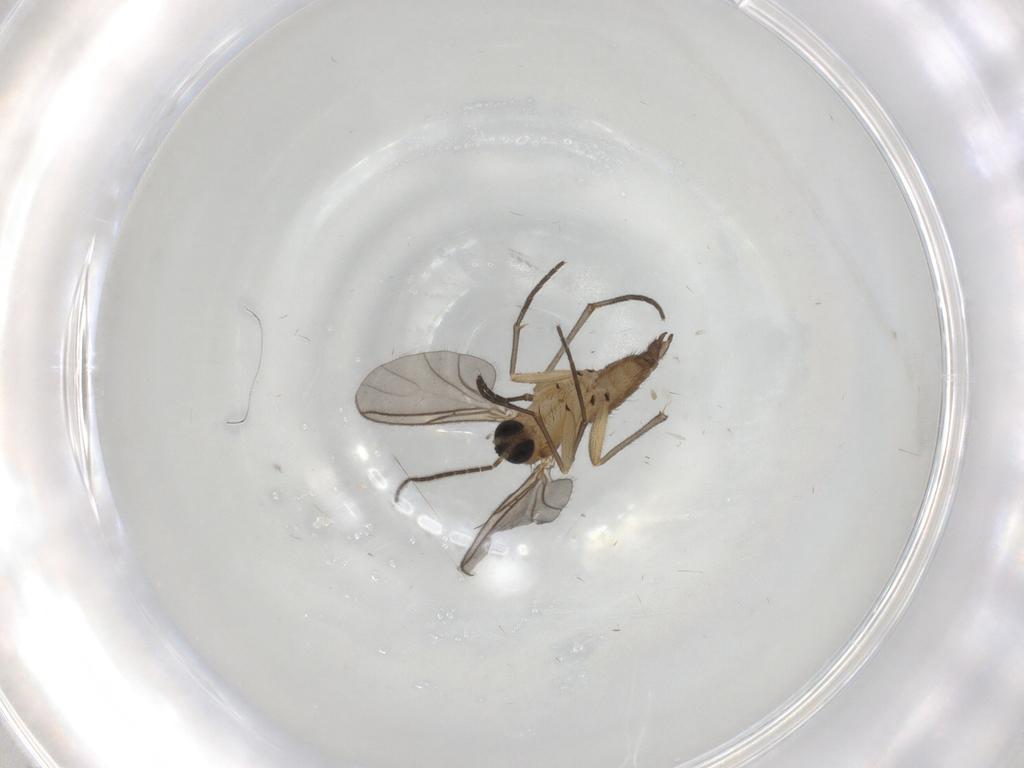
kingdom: Animalia
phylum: Arthropoda
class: Insecta
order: Diptera
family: Sciaridae
